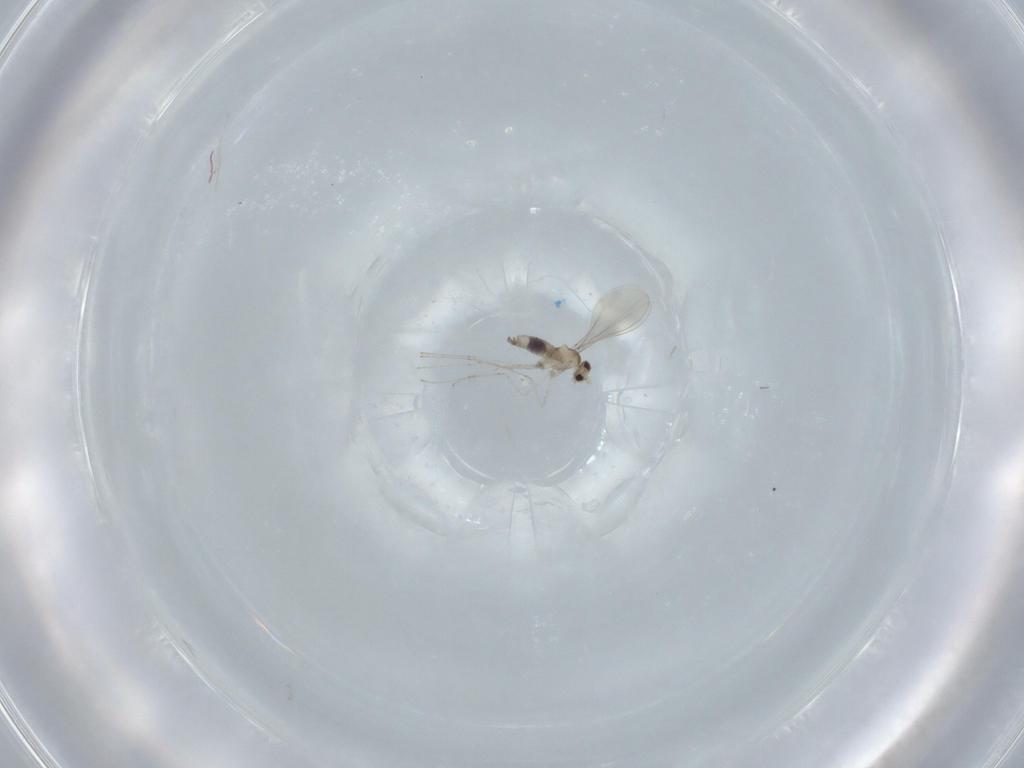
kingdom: Animalia
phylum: Arthropoda
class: Insecta
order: Diptera
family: Cecidomyiidae
